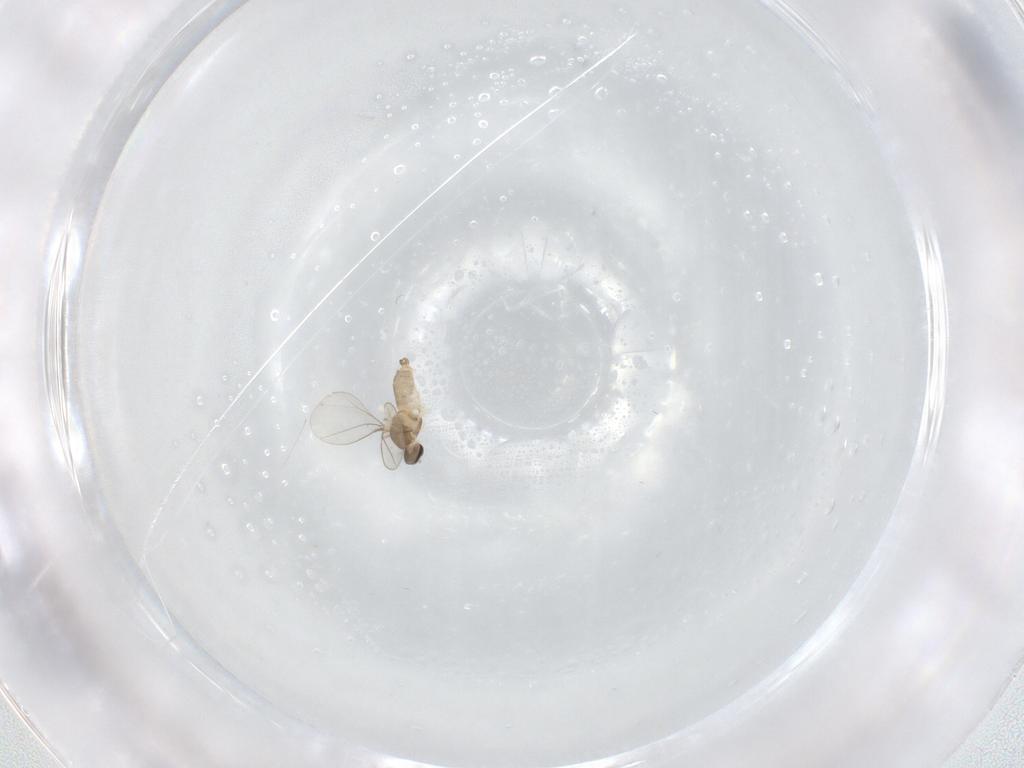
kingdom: Animalia
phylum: Arthropoda
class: Insecta
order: Diptera
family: Cecidomyiidae
